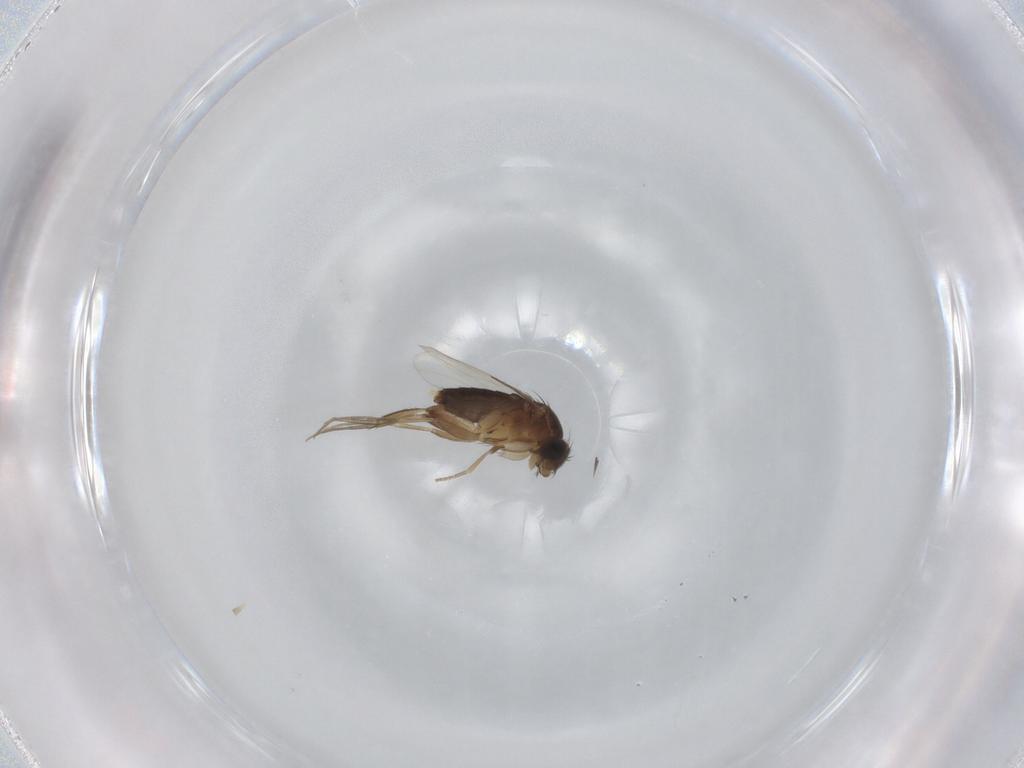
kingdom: Animalia
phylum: Arthropoda
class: Insecta
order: Diptera
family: Phoridae
